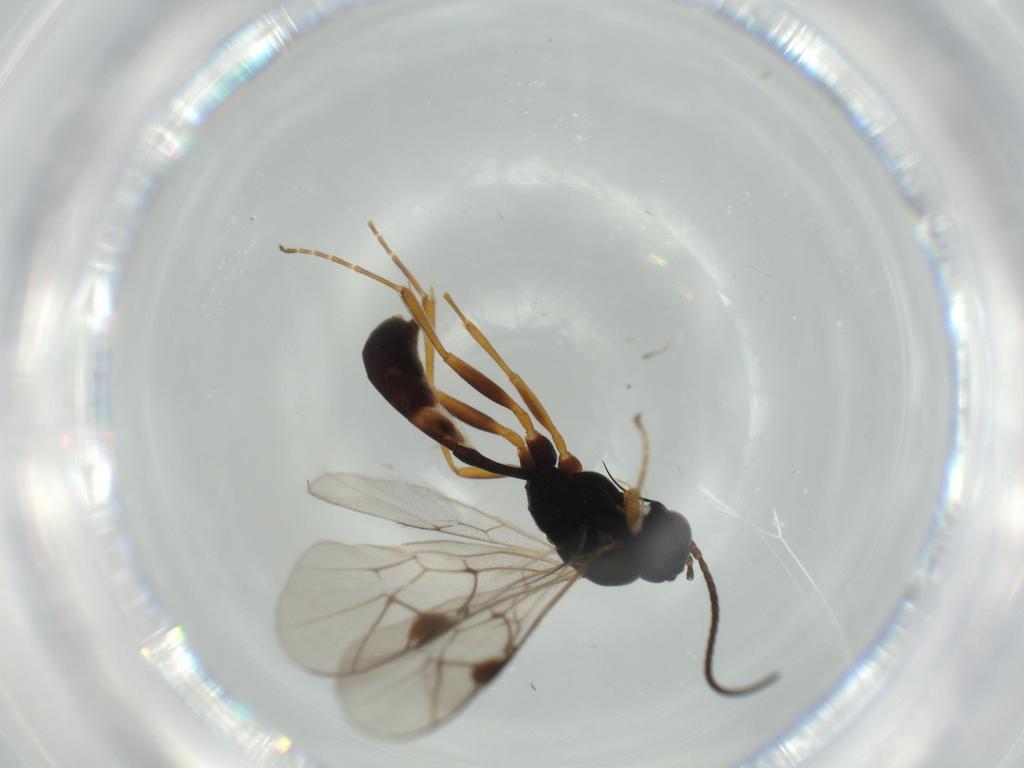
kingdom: Animalia
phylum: Arthropoda
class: Insecta
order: Hymenoptera
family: Ichneumonidae
